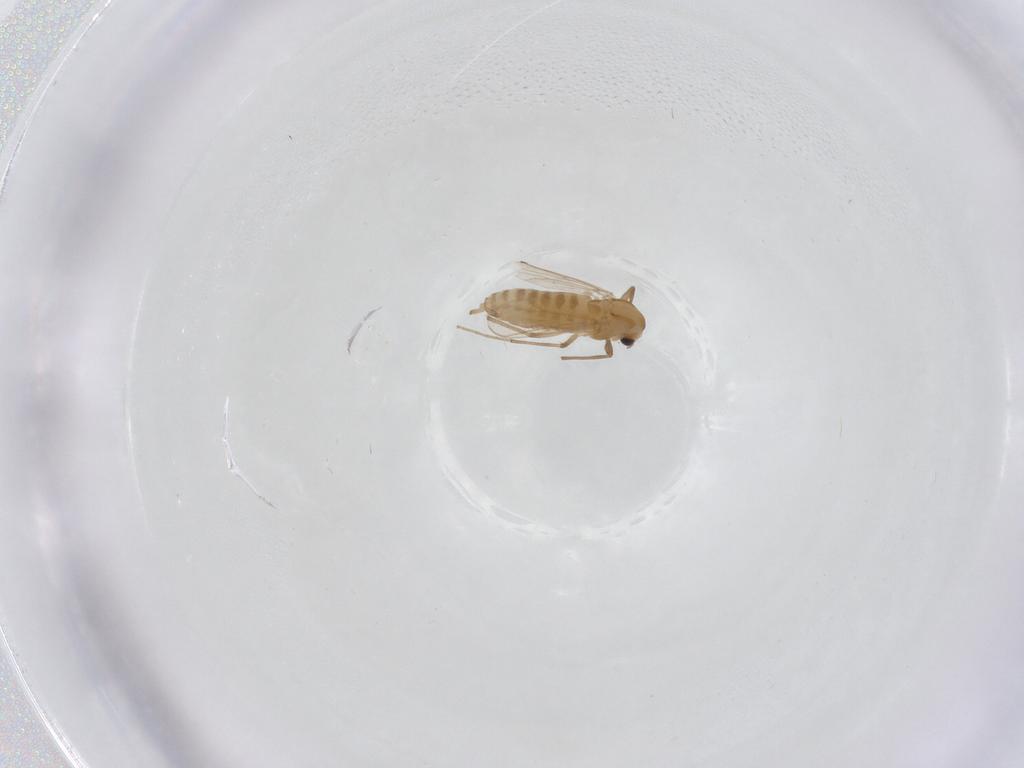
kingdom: Animalia
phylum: Arthropoda
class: Insecta
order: Diptera
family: Chironomidae
